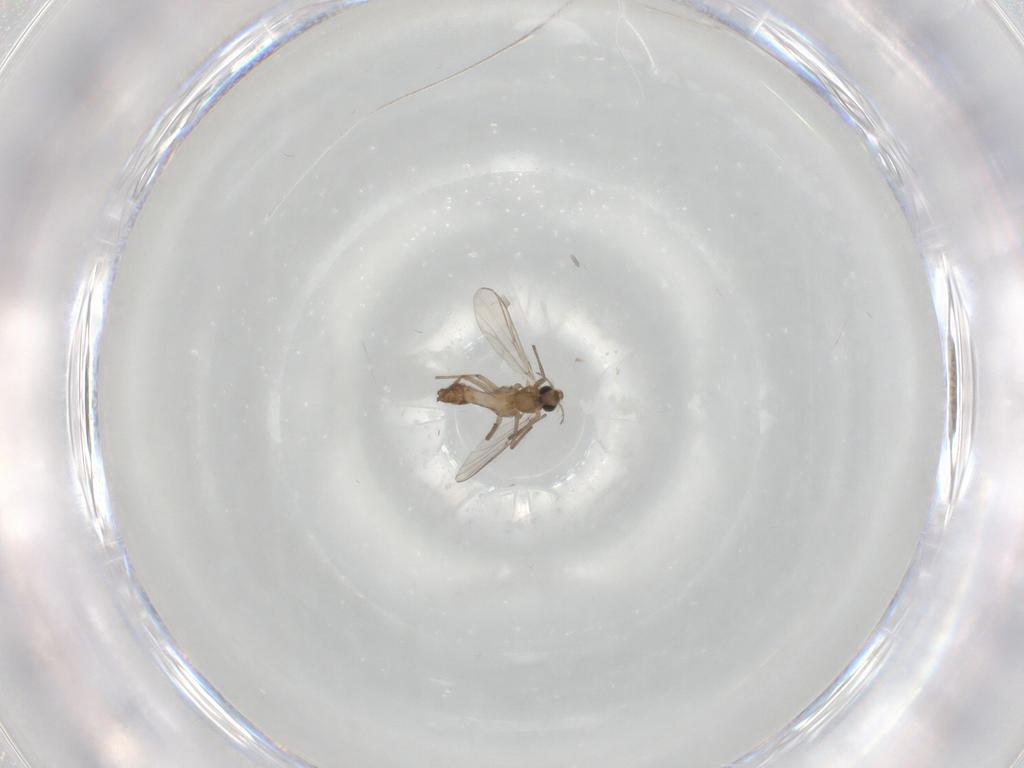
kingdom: Animalia
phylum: Arthropoda
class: Insecta
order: Diptera
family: Chironomidae
